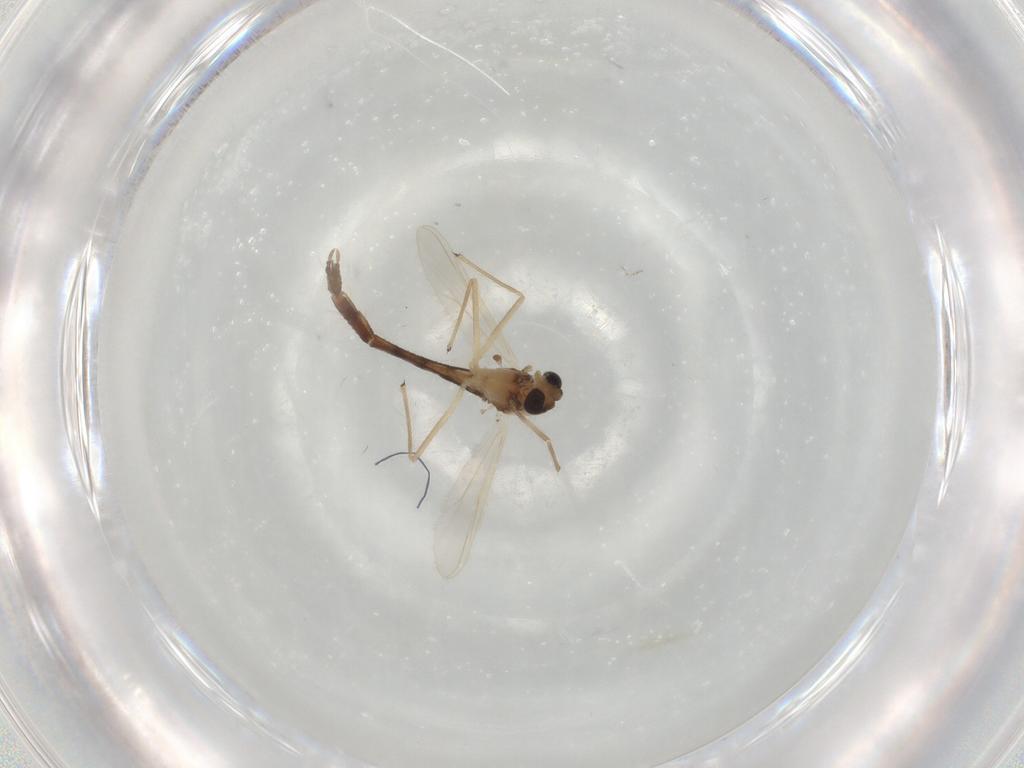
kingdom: Animalia
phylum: Arthropoda
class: Insecta
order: Diptera
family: Chironomidae
